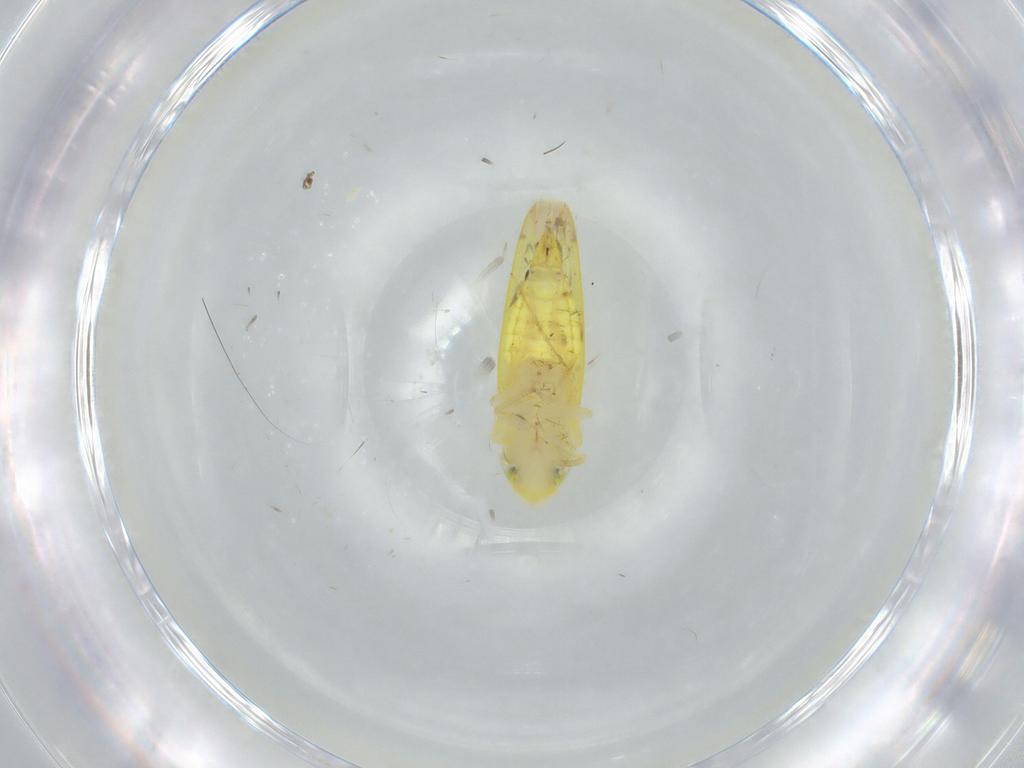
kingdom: Animalia
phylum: Arthropoda
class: Insecta
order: Hemiptera
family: Cicadellidae
